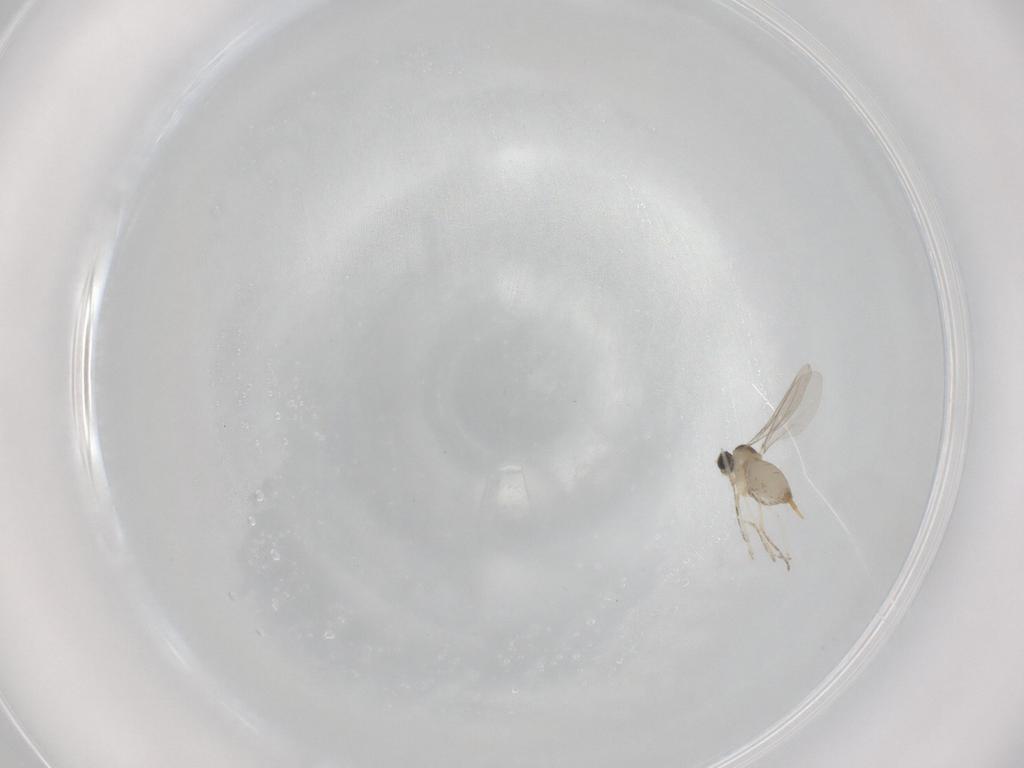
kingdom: Animalia
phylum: Arthropoda
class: Insecta
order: Diptera
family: Cecidomyiidae
